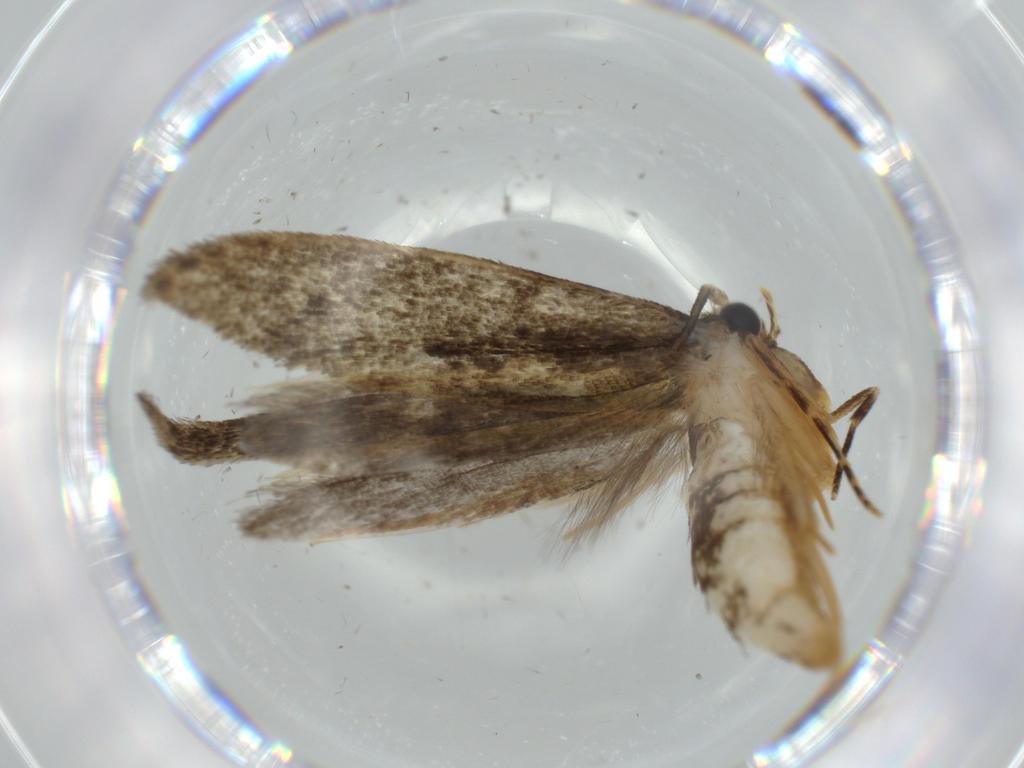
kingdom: Animalia
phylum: Arthropoda
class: Insecta
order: Lepidoptera
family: Tineidae
